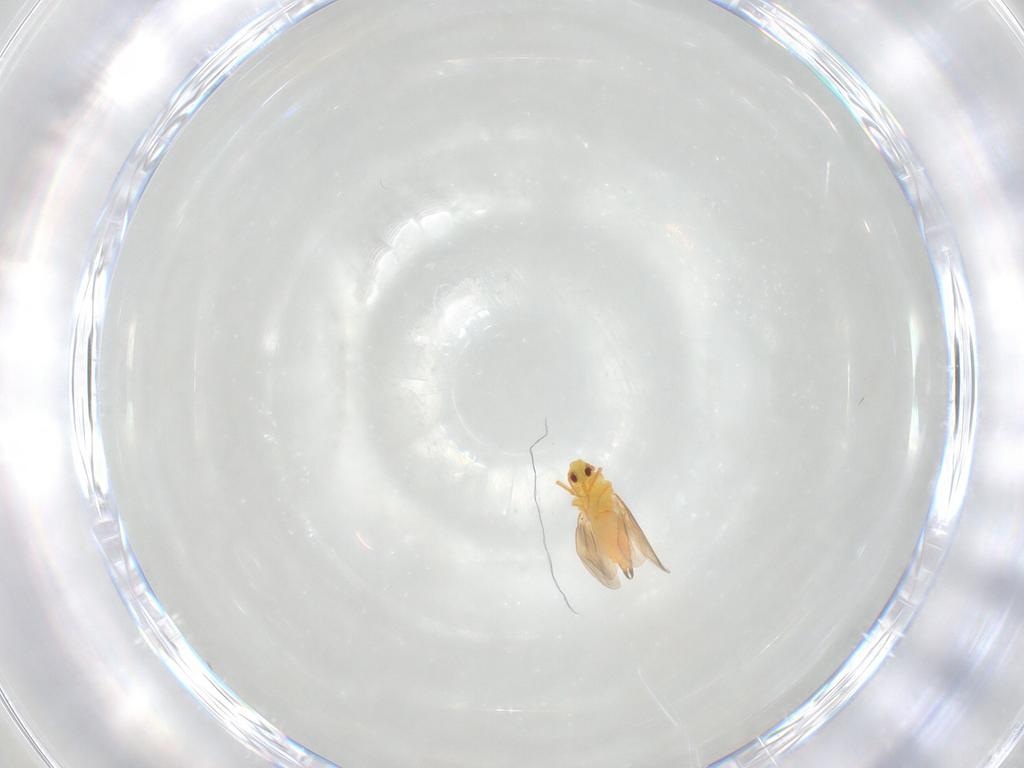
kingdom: Animalia
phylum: Arthropoda
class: Insecta
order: Hemiptera
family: Aleyrodidae
